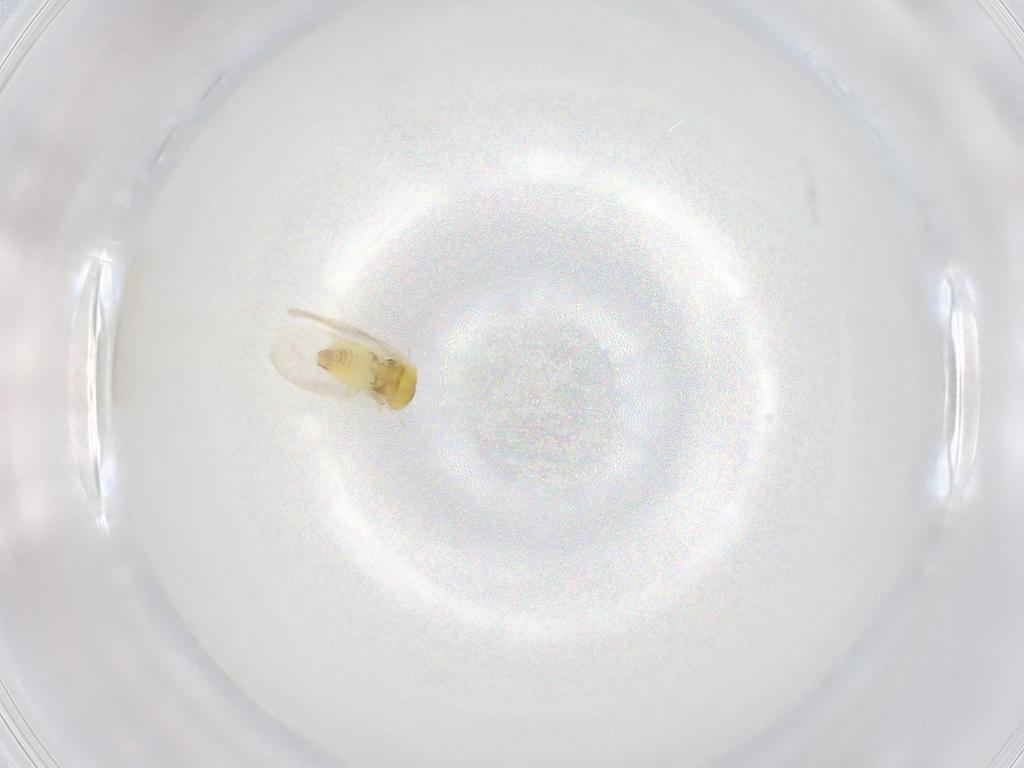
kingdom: Animalia
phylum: Arthropoda
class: Insecta
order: Hemiptera
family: Aleyrodidae
